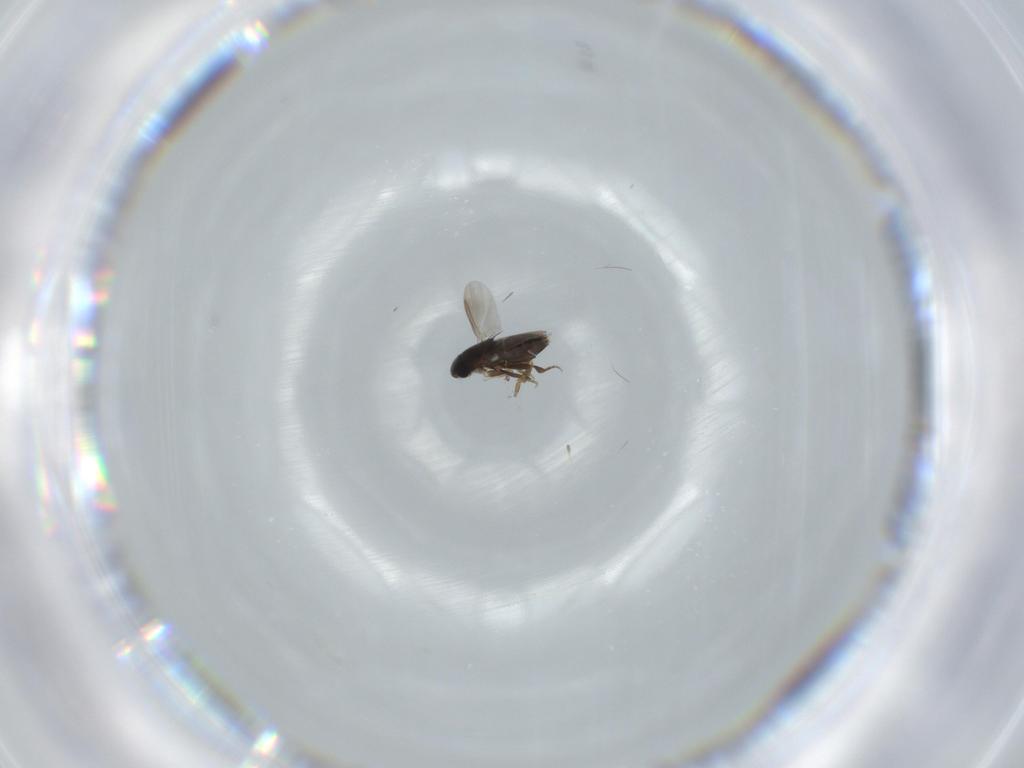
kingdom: Animalia
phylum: Arthropoda
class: Insecta
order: Diptera
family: Phoridae
